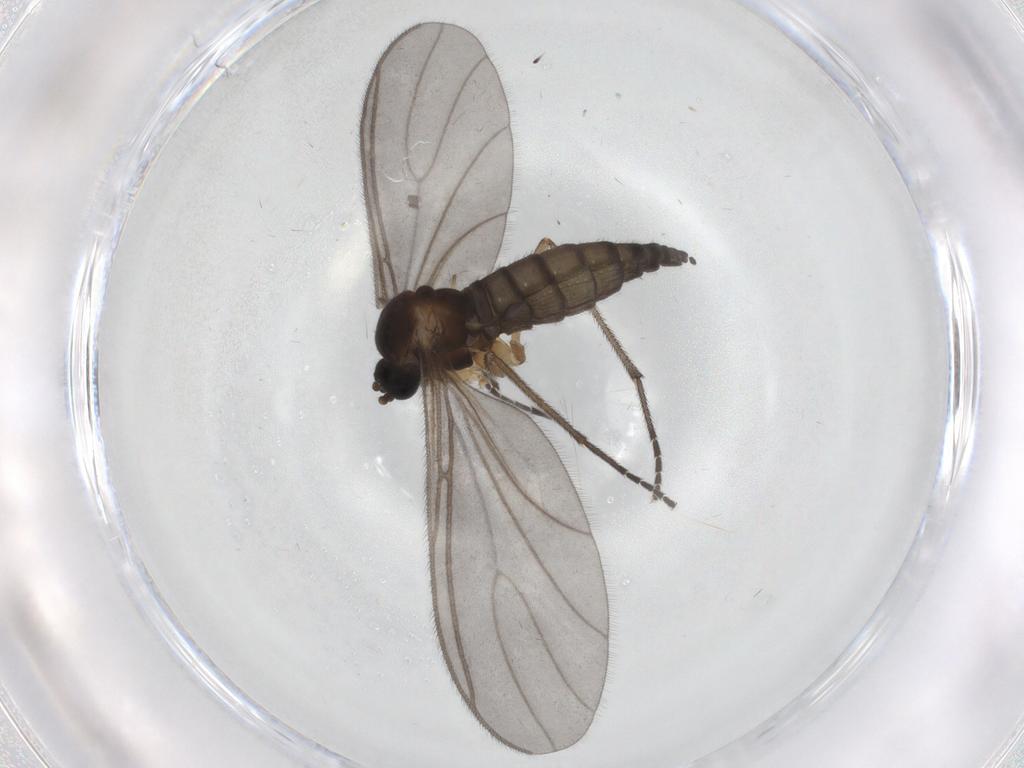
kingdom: Animalia
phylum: Arthropoda
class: Insecta
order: Diptera
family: Sciaridae
